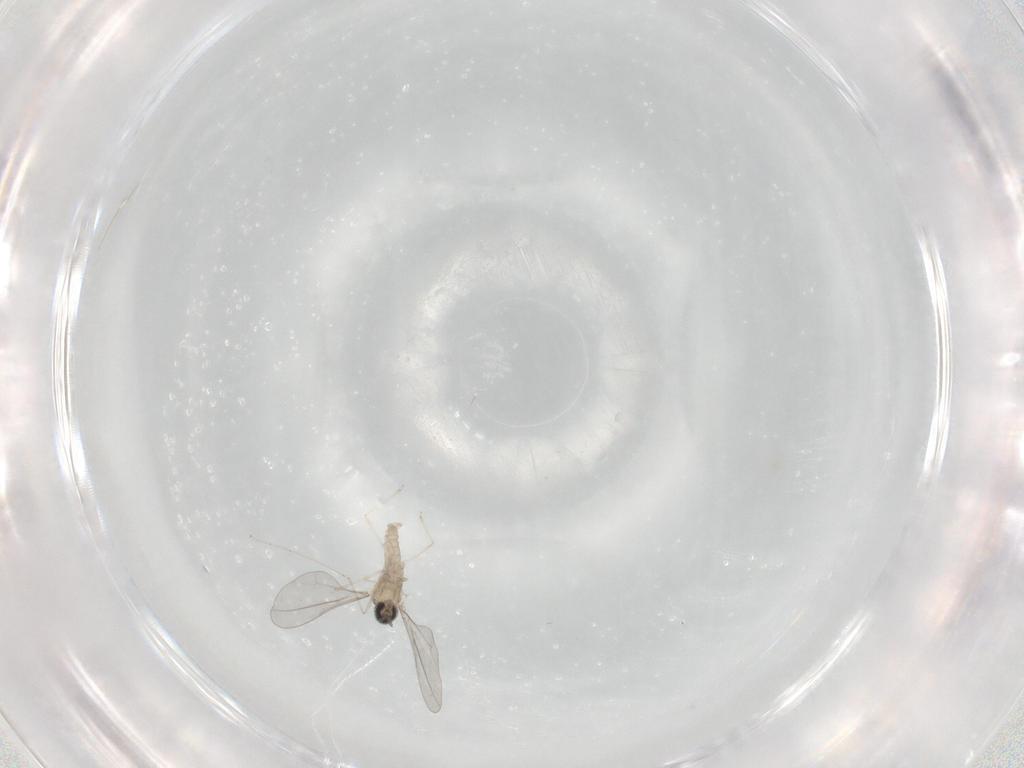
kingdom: Animalia
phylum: Arthropoda
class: Insecta
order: Diptera
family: Cecidomyiidae
